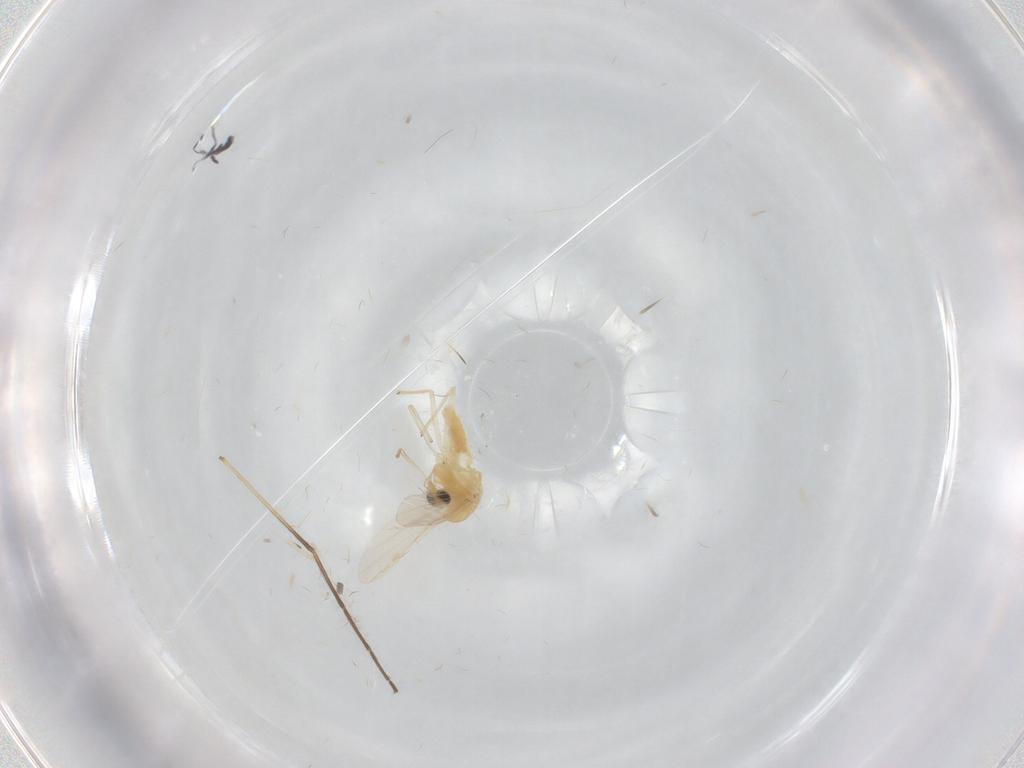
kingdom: Animalia
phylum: Arthropoda
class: Insecta
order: Diptera
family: Chironomidae
